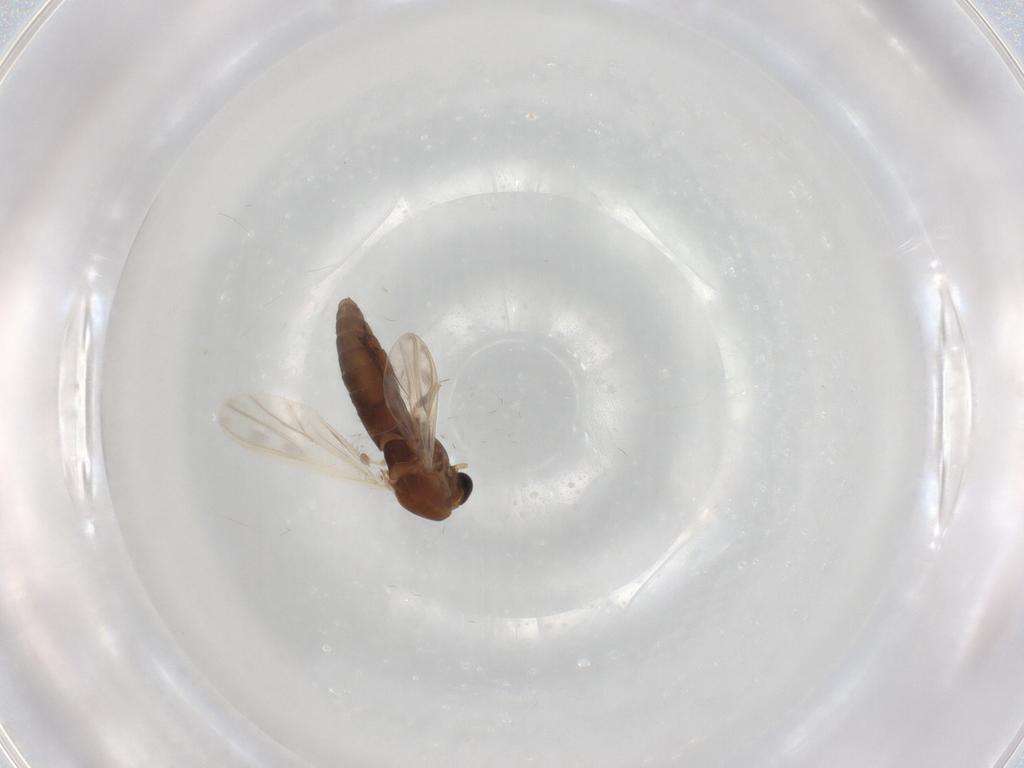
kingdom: Animalia
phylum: Arthropoda
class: Insecta
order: Diptera
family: Chironomidae
